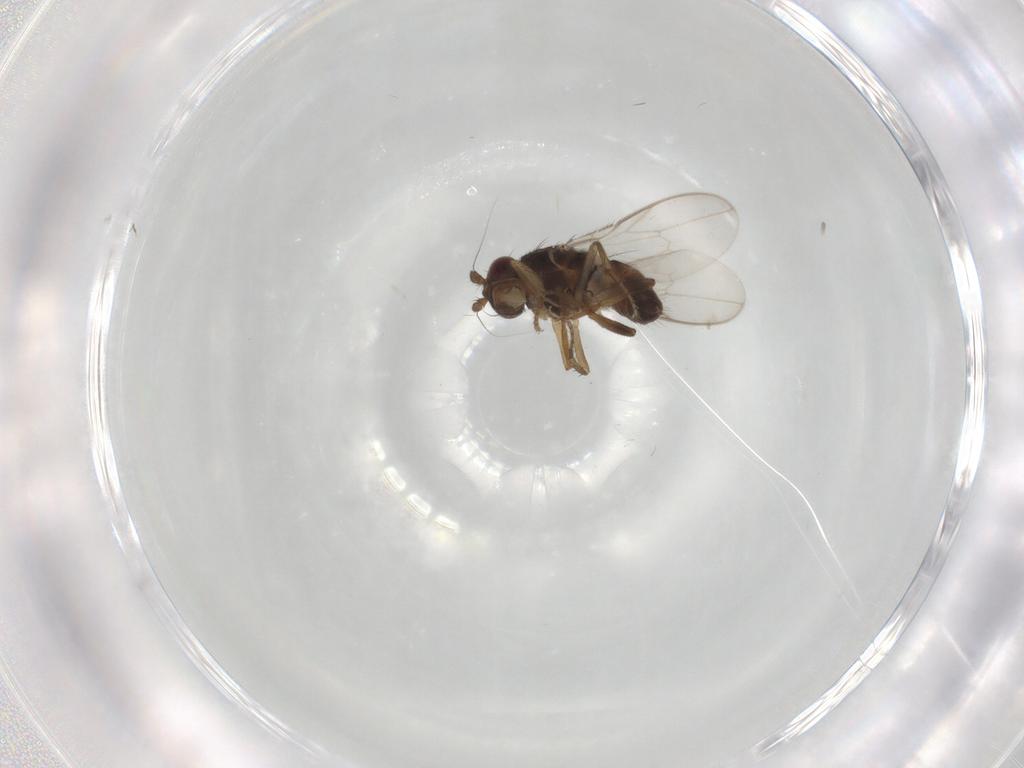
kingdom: Animalia
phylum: Arthropoda
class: Insecta
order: Diptera
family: Sphaeroceridae
